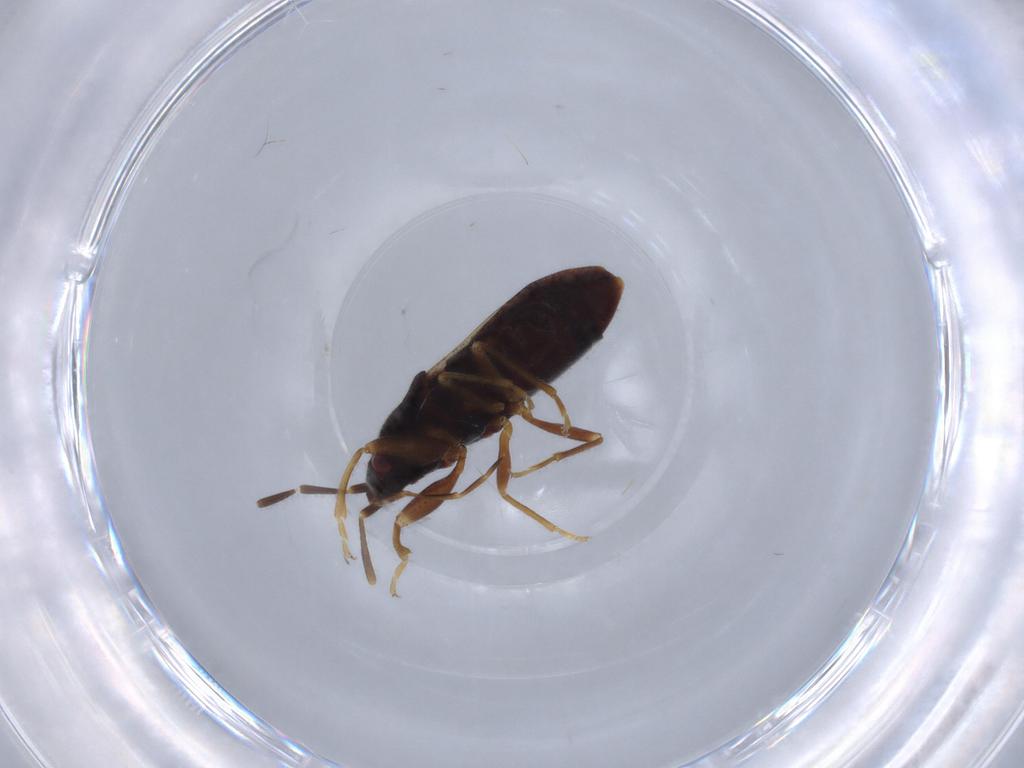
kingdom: Animalia
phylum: Arthropoda
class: Insecta
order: Hemiptera
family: Rhyparochromidae
